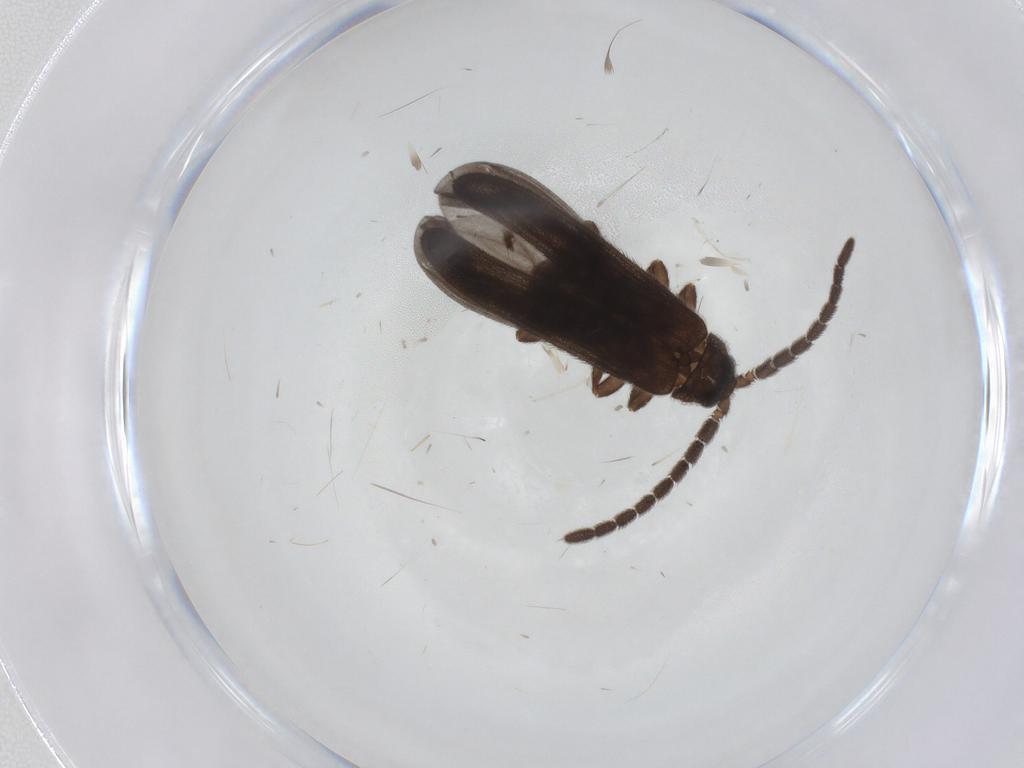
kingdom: Animalia
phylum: Arthropoda
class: Insecta
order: Coleoptera
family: Lycidae
